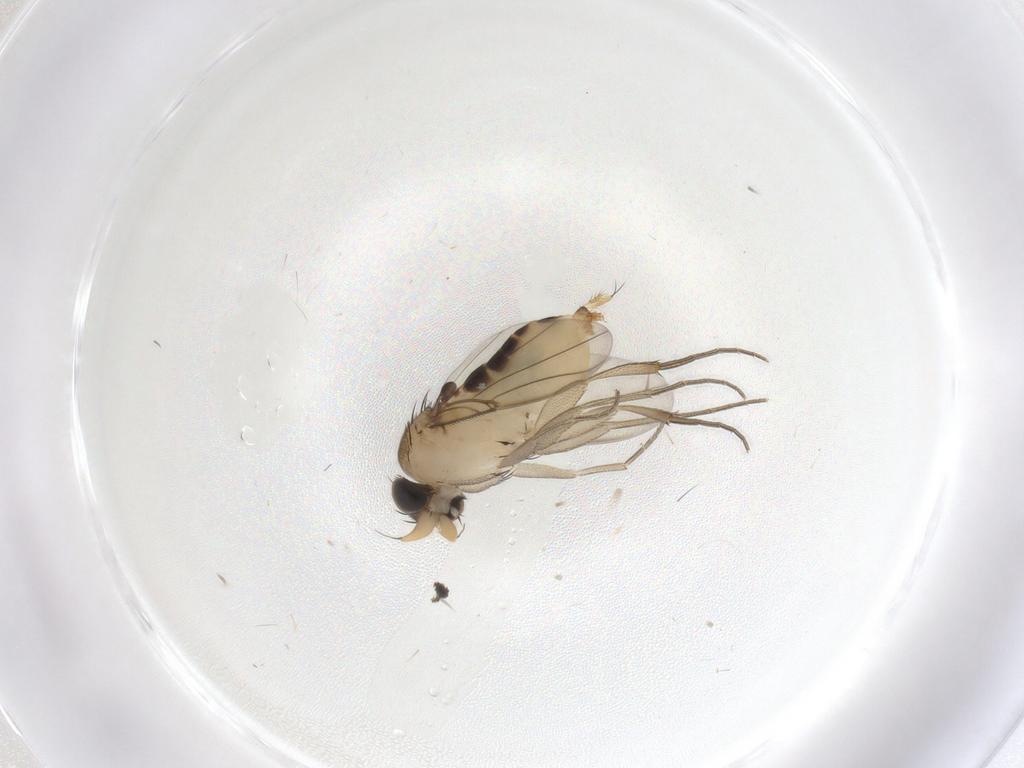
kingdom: Animalia
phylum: Arthropoda
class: Insecta
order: Diptera
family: Phoridae
